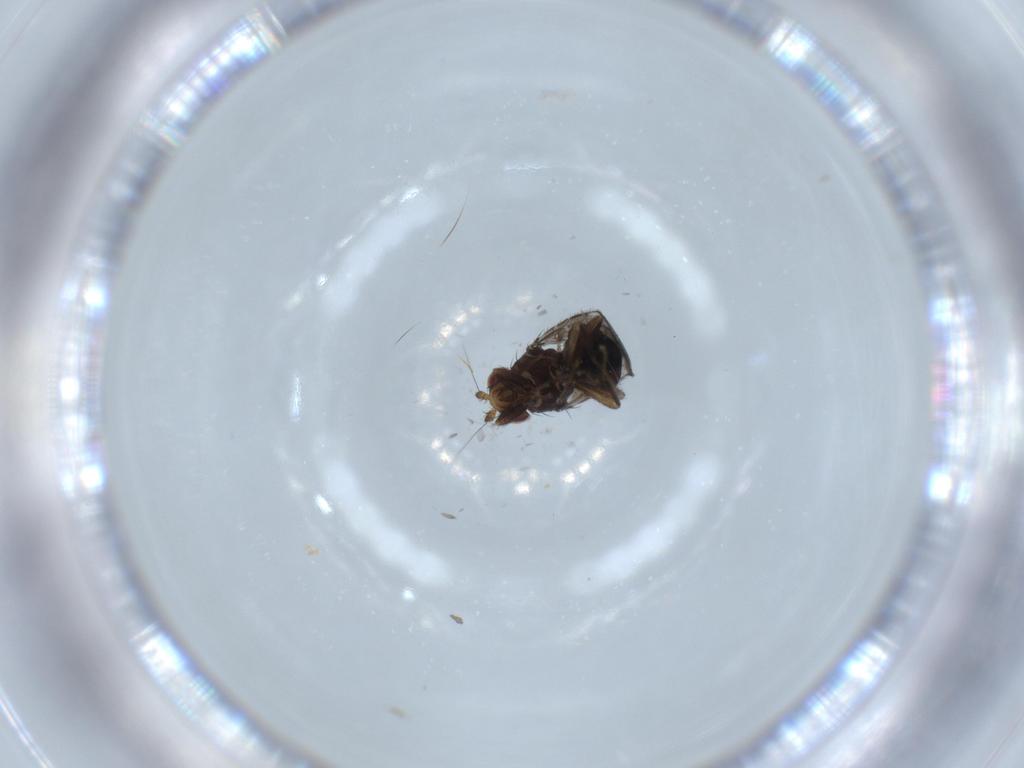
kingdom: Animalia
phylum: Arthropoda
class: Insecta
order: Diptera
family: Sphaeroceridae
